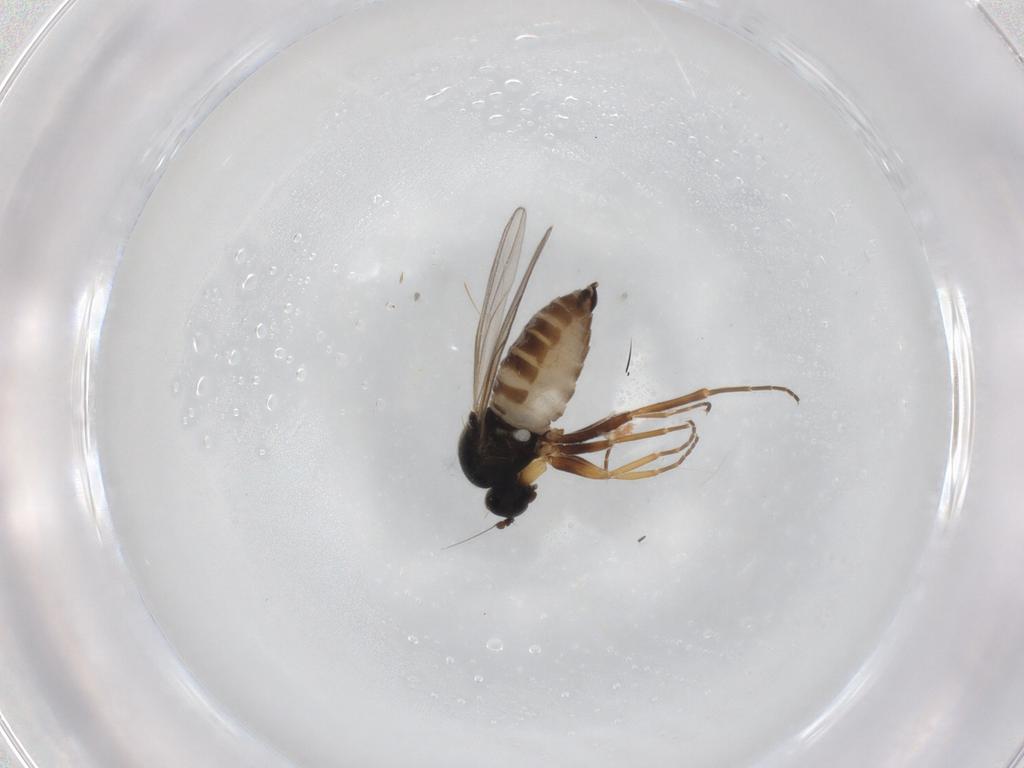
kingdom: Animalia
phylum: Arthropoda
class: Insecta
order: Diptera
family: Hybotidae
